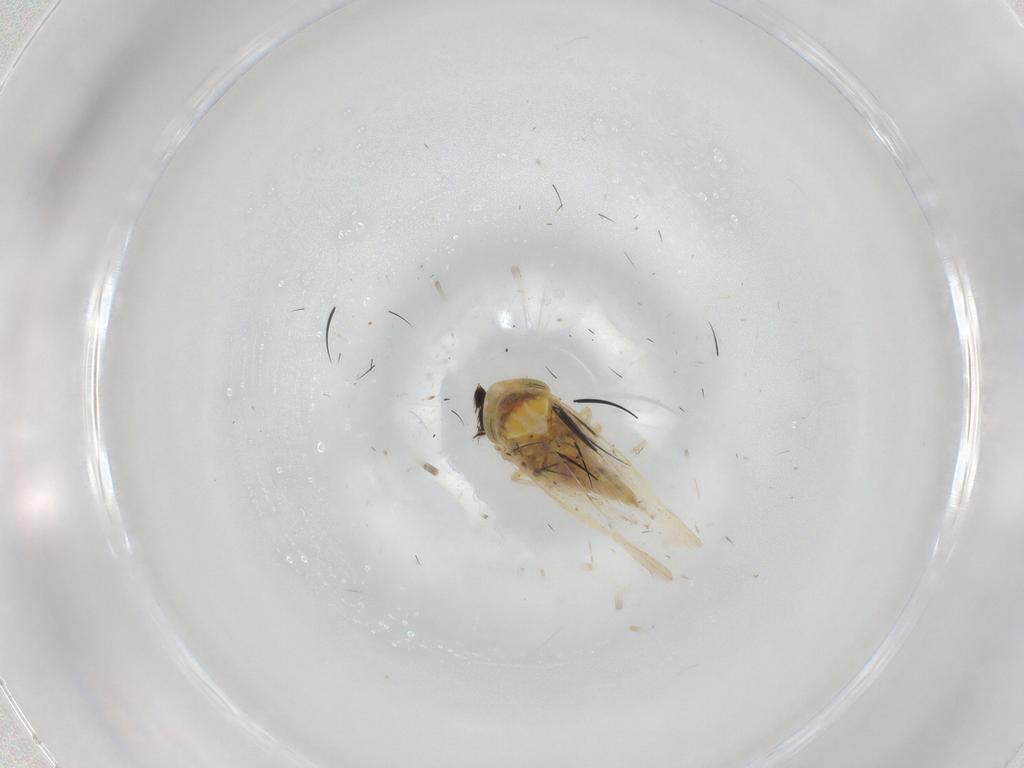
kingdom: Animalia
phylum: Arthropoda
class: Insecta
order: Hemiptera
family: Cicadellidae
